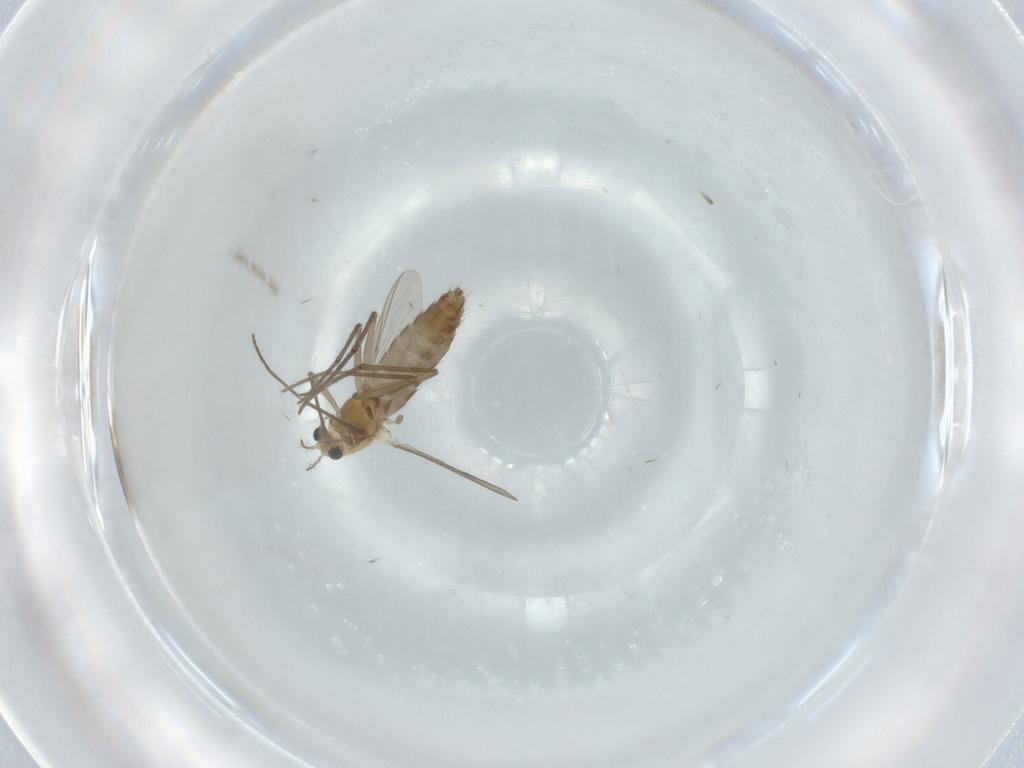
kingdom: Animalia
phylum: Arthropoda
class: Insecta
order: Diptera
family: Chironomidae
